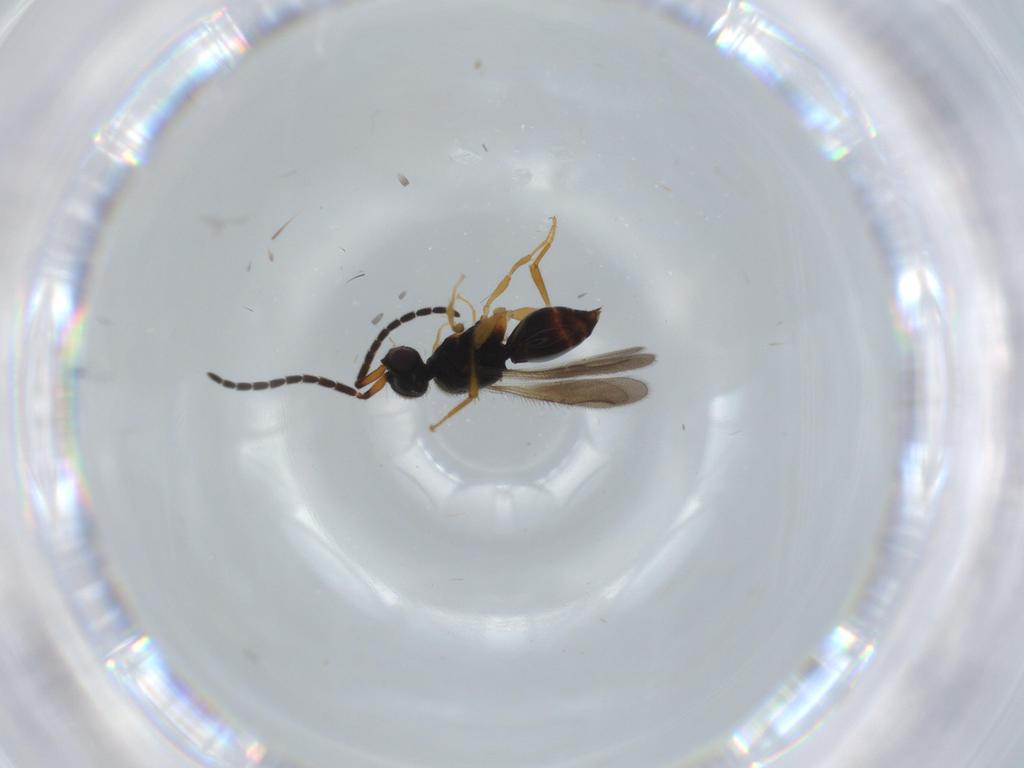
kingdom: Animalia
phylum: Arthropoda
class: Insecta
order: Hymenoptera
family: Ceraphronidae
